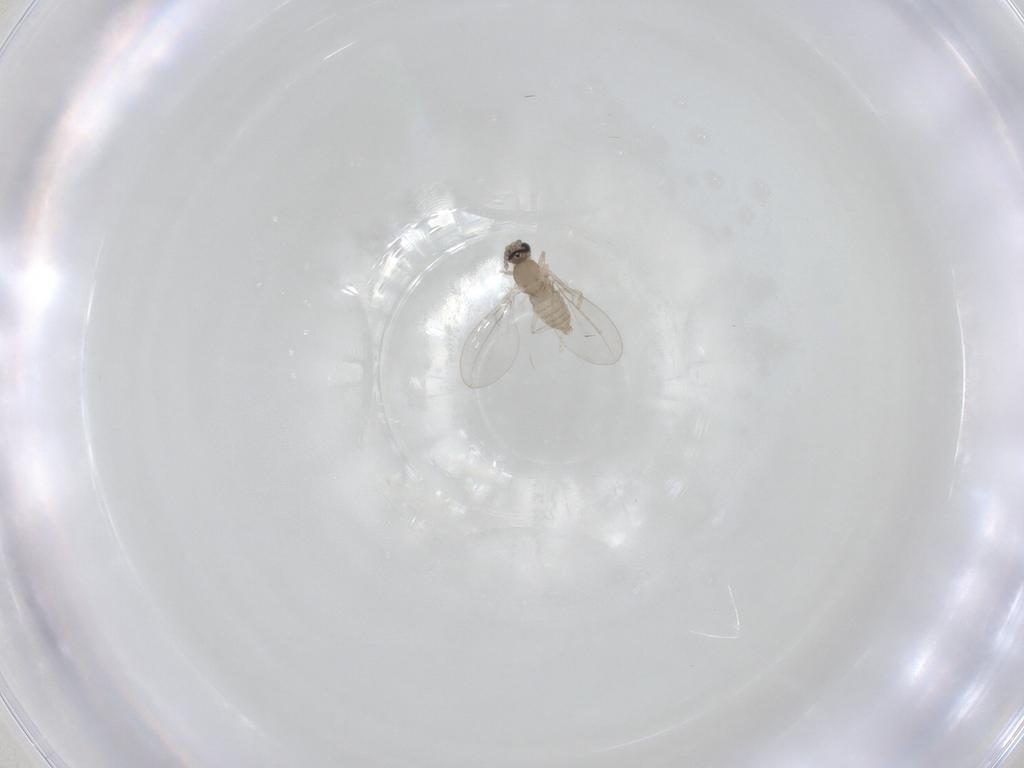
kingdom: Animalia
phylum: Arthropoda
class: Insecta
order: Diptera
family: Cecidomyiidae
